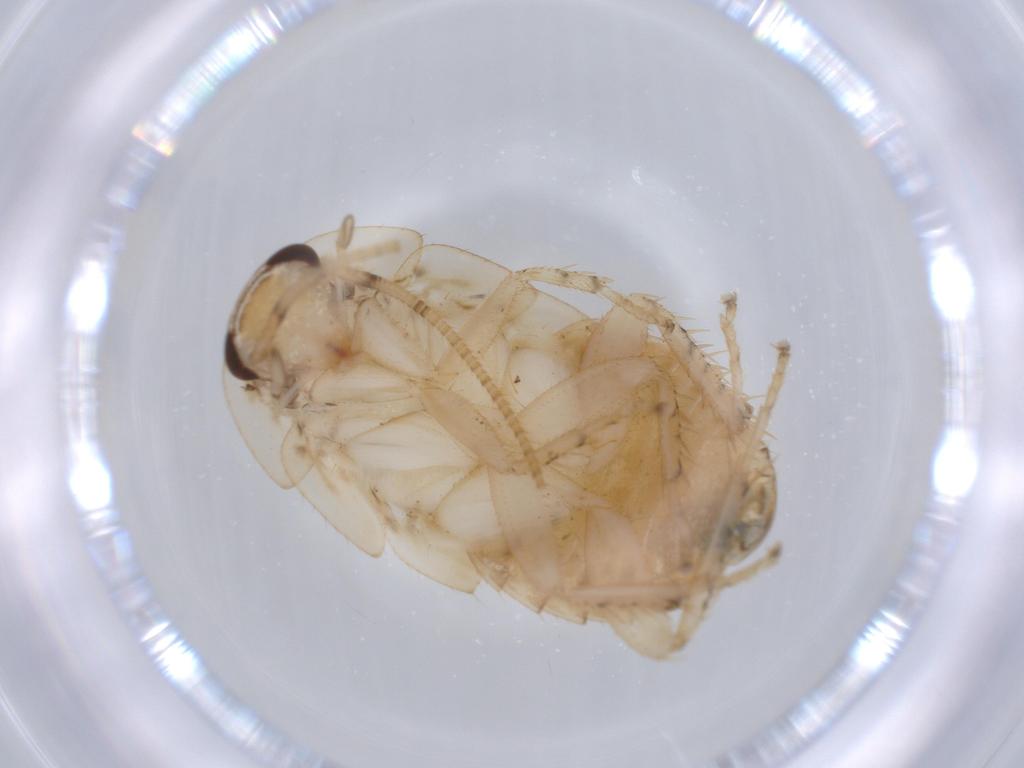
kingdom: Animalia
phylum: Arthropoda
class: Insecta
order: Blattodea
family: Ectobiidae
